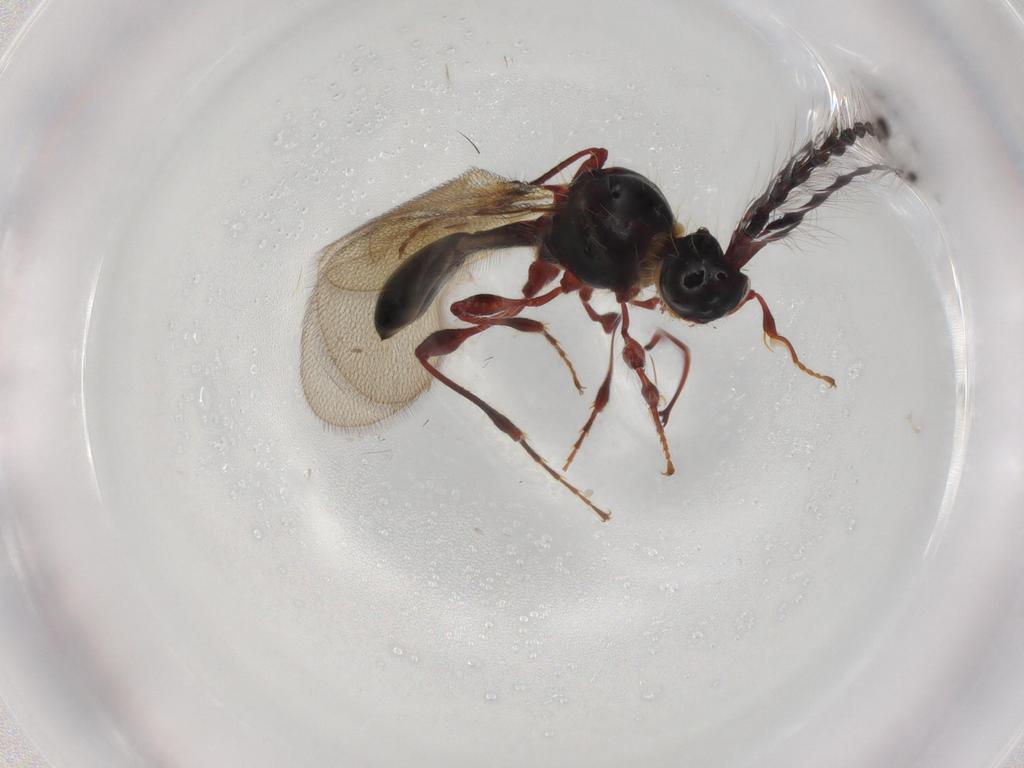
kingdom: Animalia
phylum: Arthropoda
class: Insecta
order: Hymenoptera
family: Diapriidae
